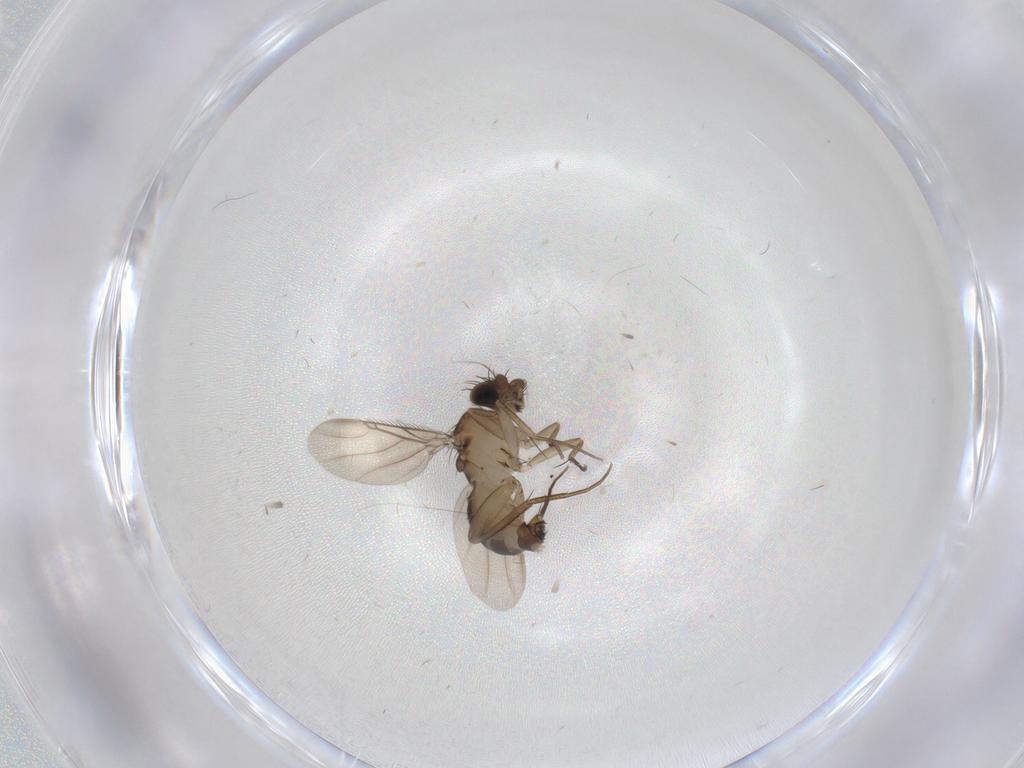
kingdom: Animalia
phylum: Arthropoda
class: Insecta
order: Diptera
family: Phoridae
